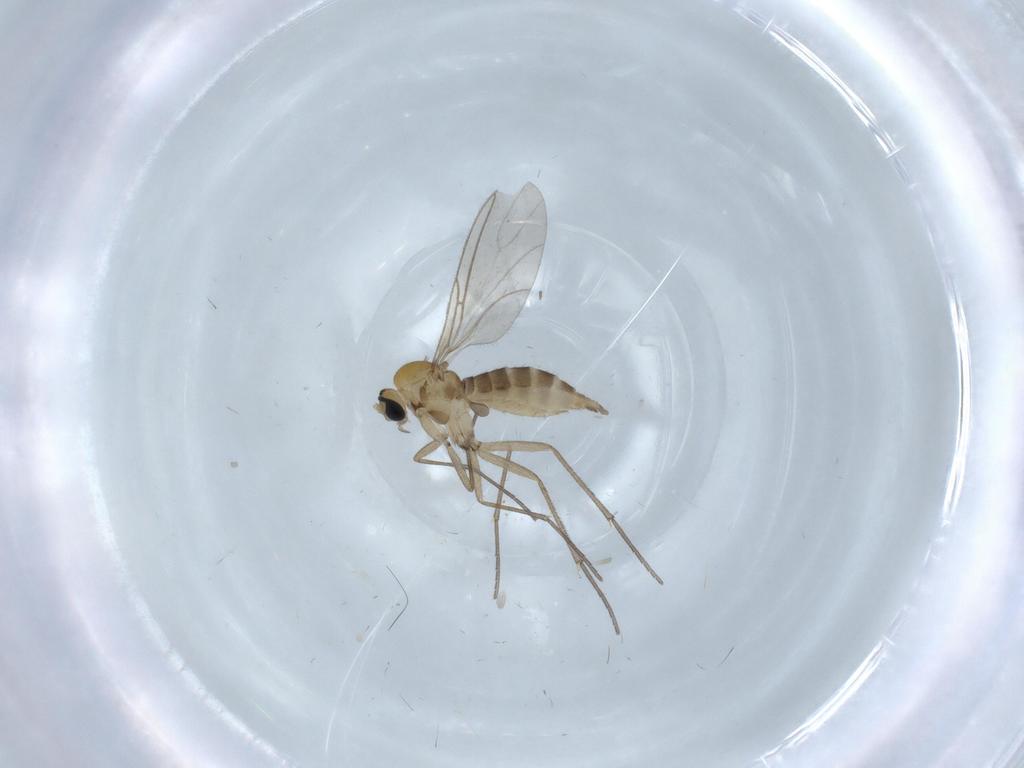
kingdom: Animalia
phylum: Arthropoda
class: Insecta
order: Diptera
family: Sciaridae
